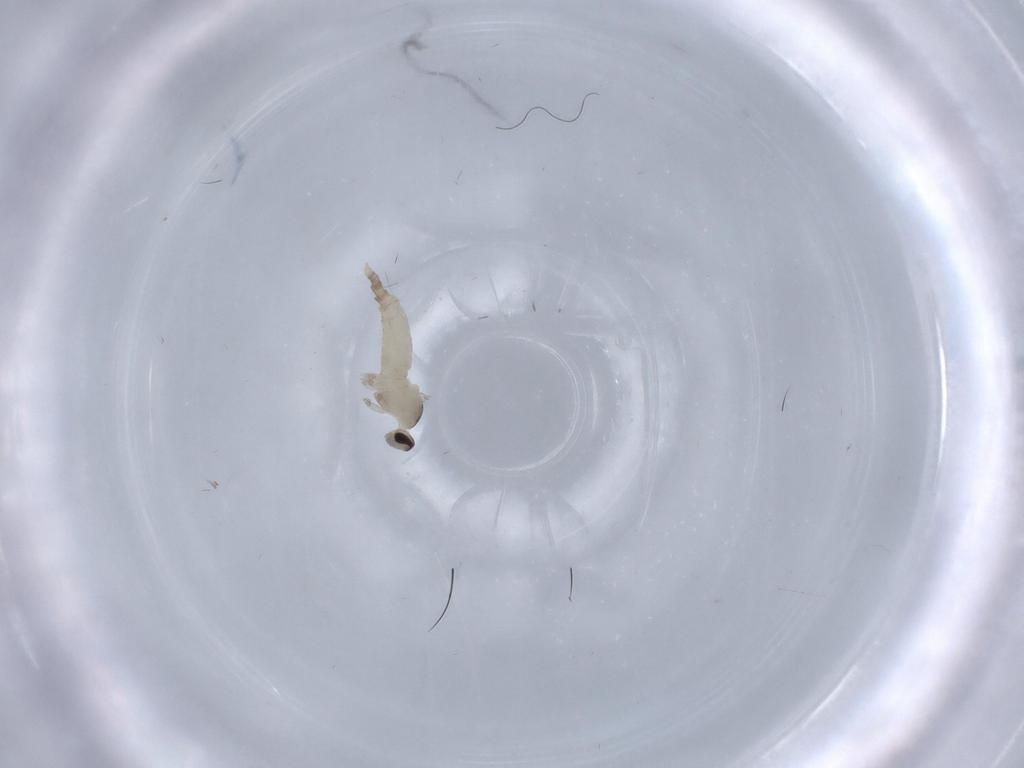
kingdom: Animalia
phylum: Arthropoda
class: Insecta
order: Diptera
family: Cecidomyiidae
